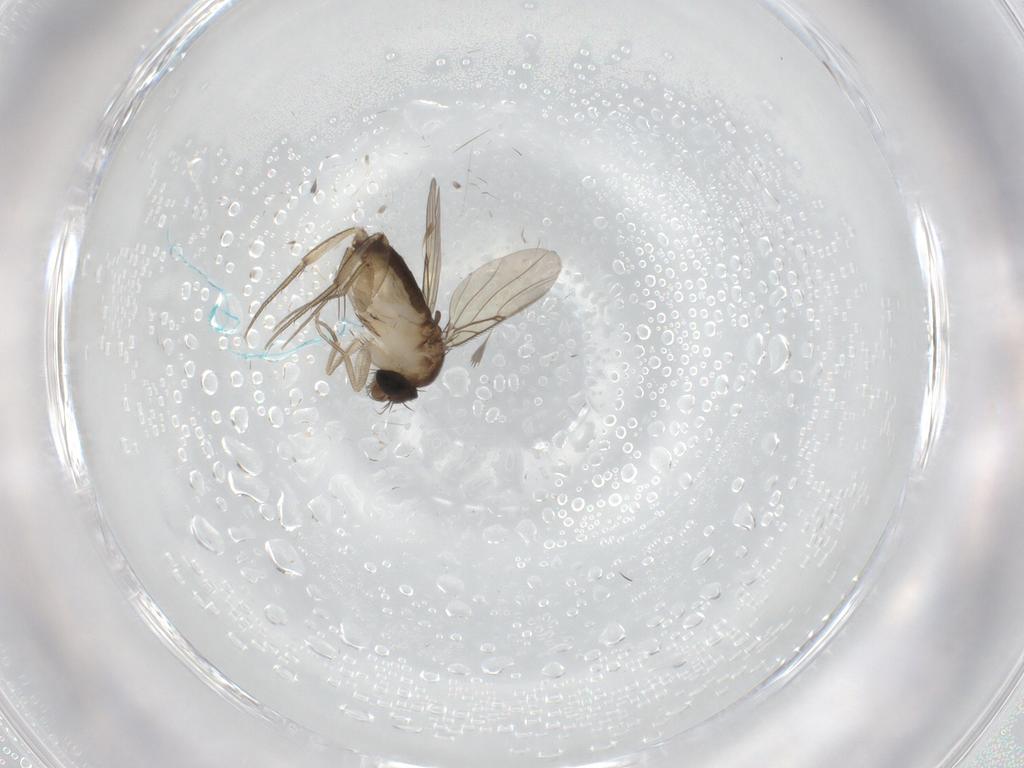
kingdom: Animalia
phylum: Arthropoda
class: Insecta
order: Diptera
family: Phoridae
